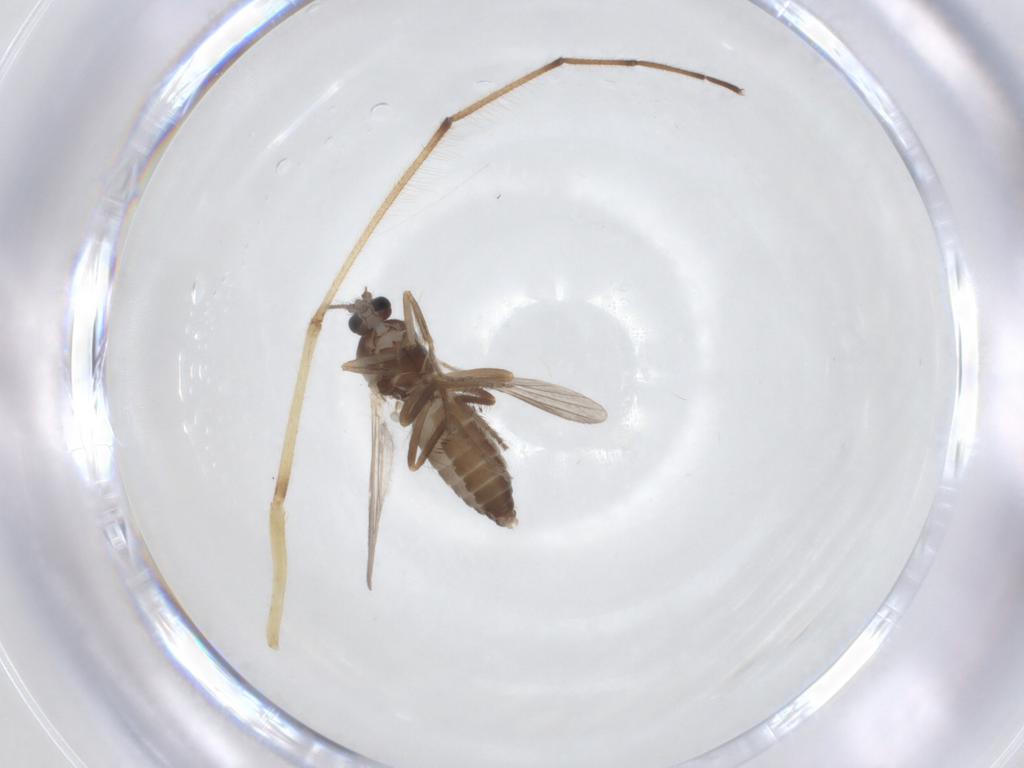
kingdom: Animalia
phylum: Arthropoda
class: Insecta
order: Diptera
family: Ceratopogonidae
